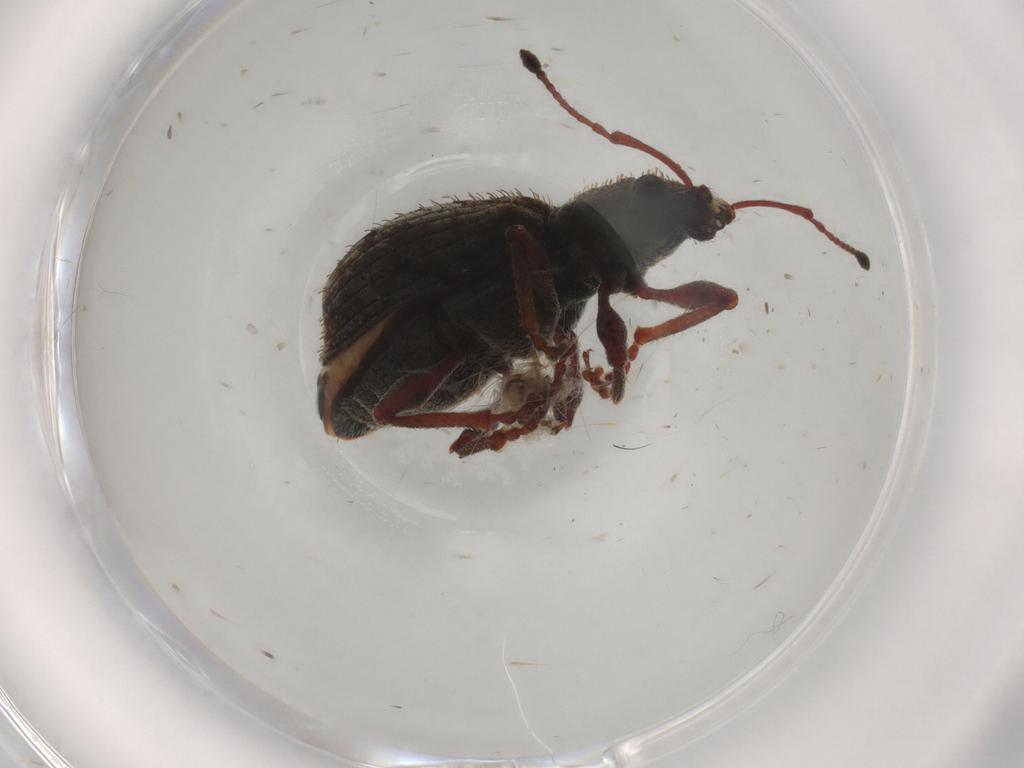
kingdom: Animalia
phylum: Arthropoda
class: Insecta
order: Coleoptera
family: Curculionidae
